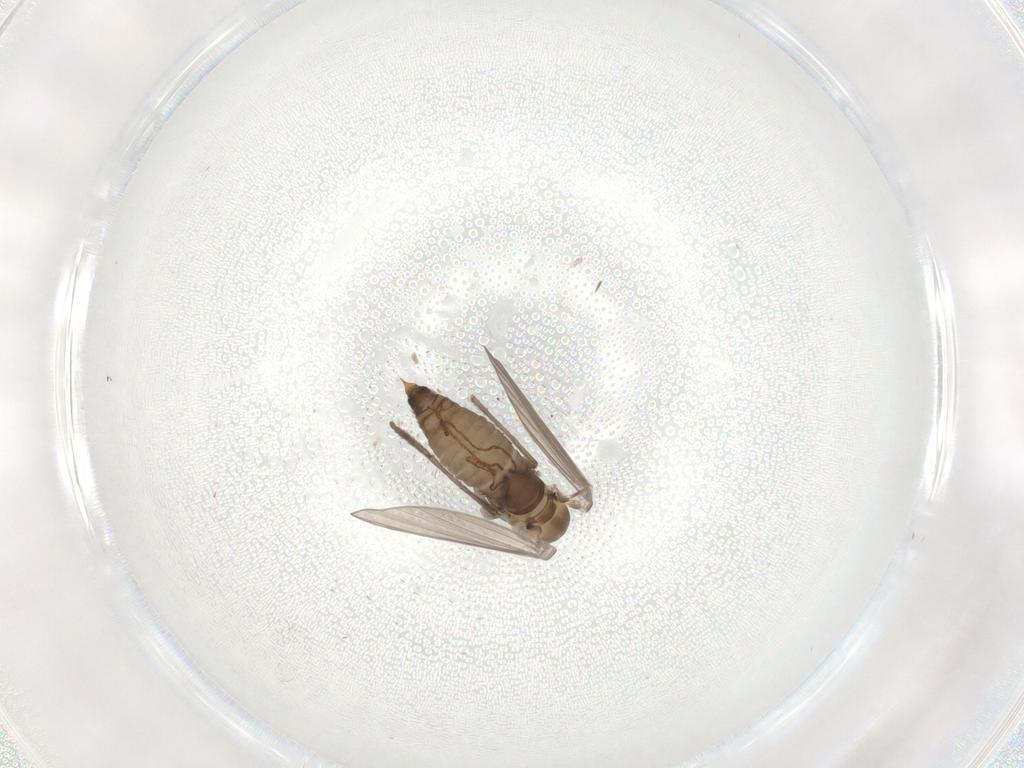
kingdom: Animalia
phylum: Arthropoda
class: Insecta
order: Diptera
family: Psychodidae
